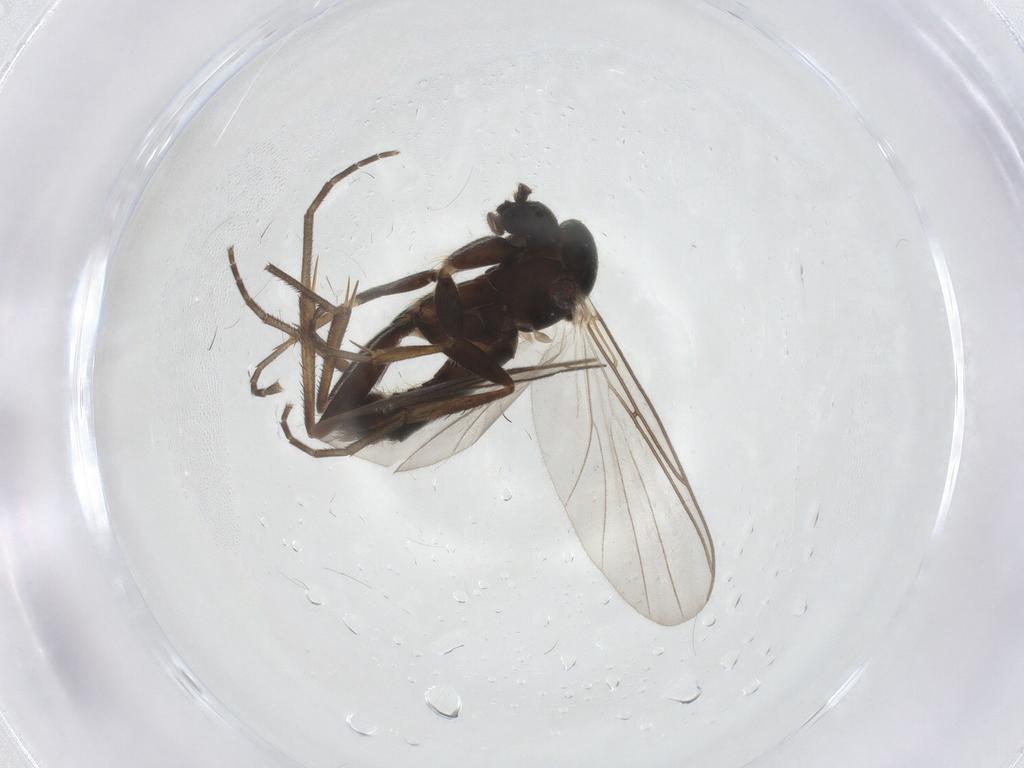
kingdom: Animalia
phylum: Arthropoda
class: Insecta
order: Diptera
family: Cecidomyiidae
